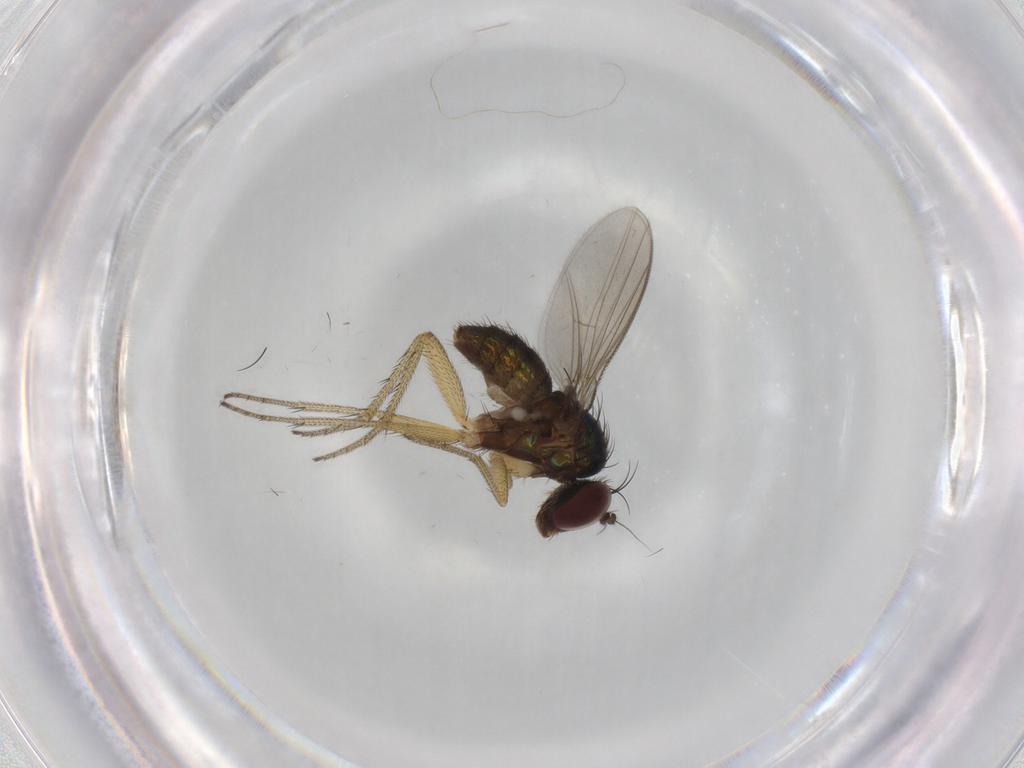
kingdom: Animalia
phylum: Arthropoda
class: Insecta
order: Diptera
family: Dolichopodidae
